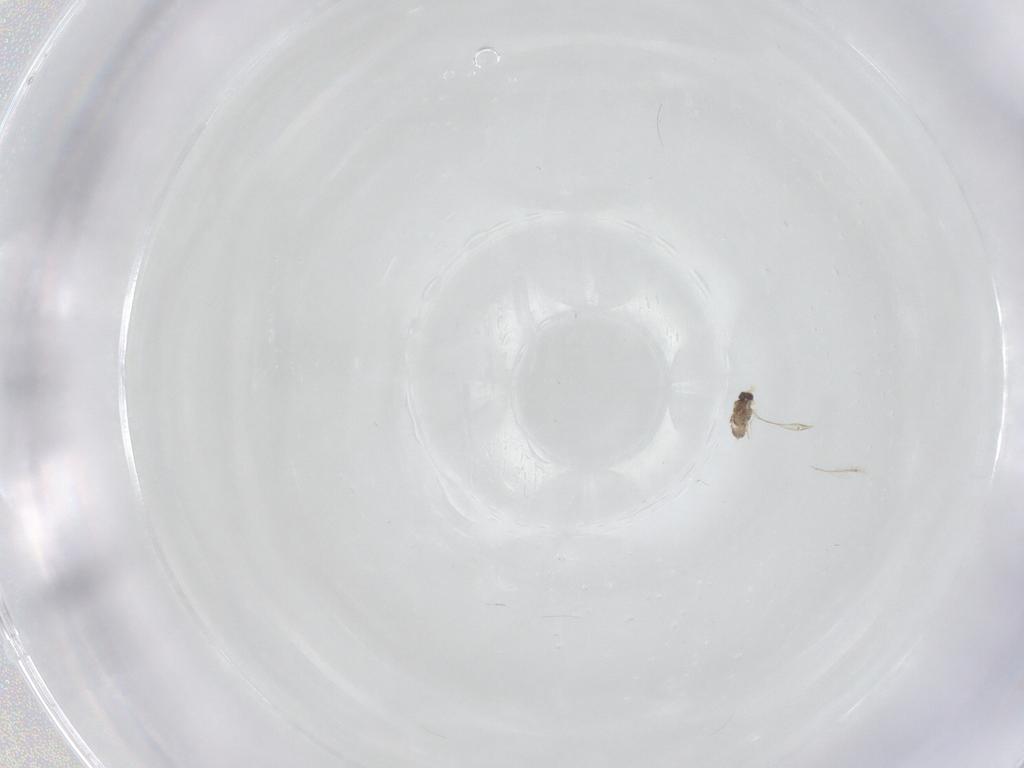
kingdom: Animalia
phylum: Arthropoda
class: Insecta
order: Hymenoptera
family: Mymaridae
